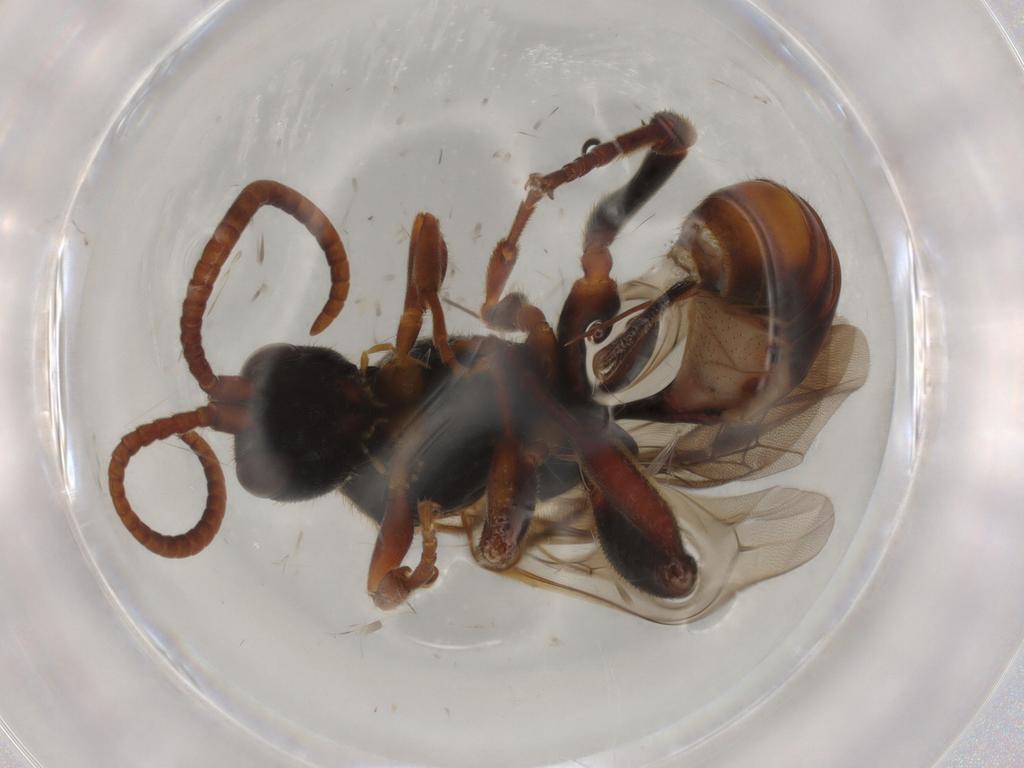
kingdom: Animalia
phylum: Arthropoda
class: Insecta
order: Hymenoptera
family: Ichneumonidae
